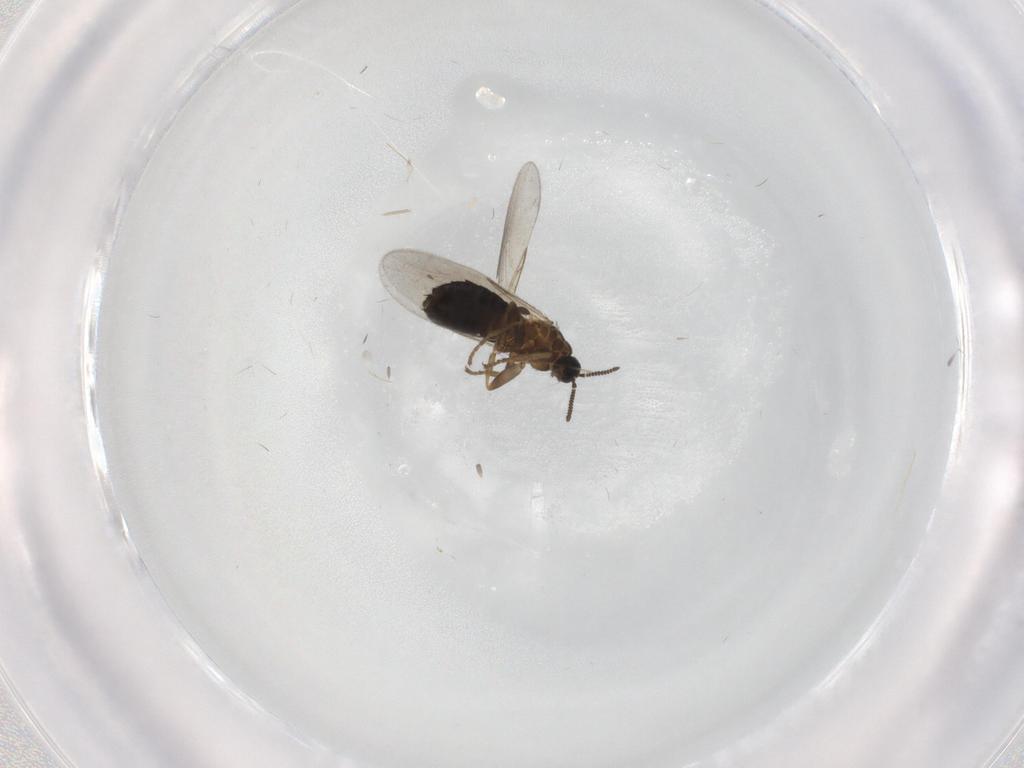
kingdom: Animalia
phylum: Arthropoda
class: Insecta
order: Diptera
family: Scatopsidae
